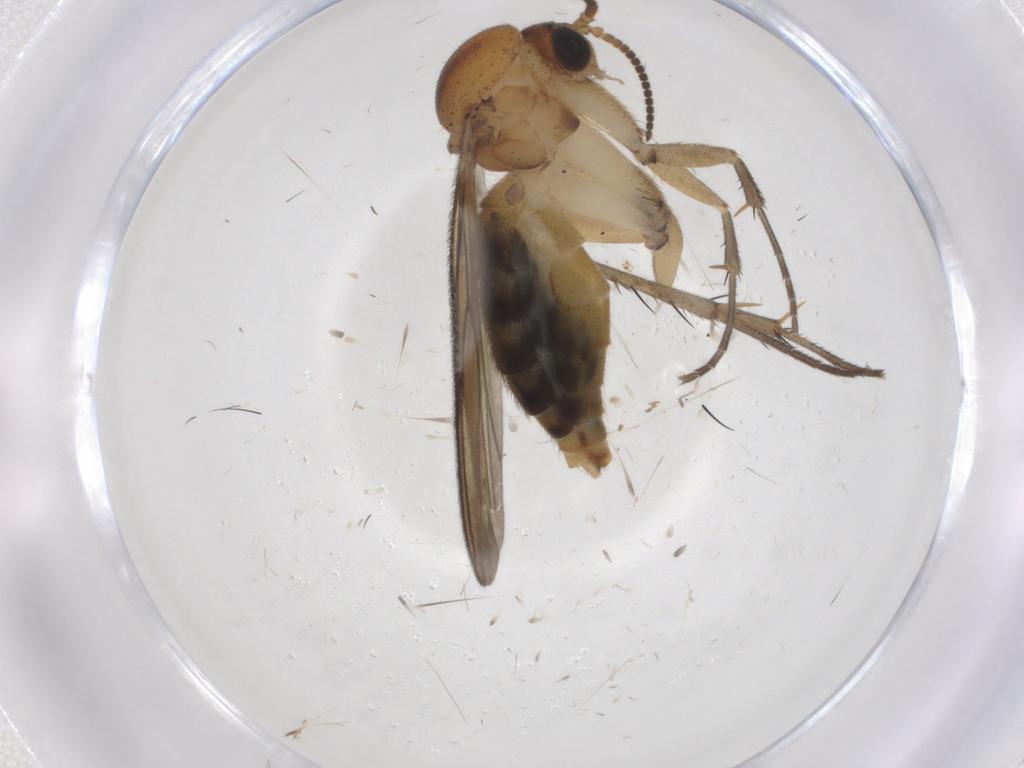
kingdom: Animalia
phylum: Arthropoda
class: Insecta
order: Diptera
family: Mycetophilidae
